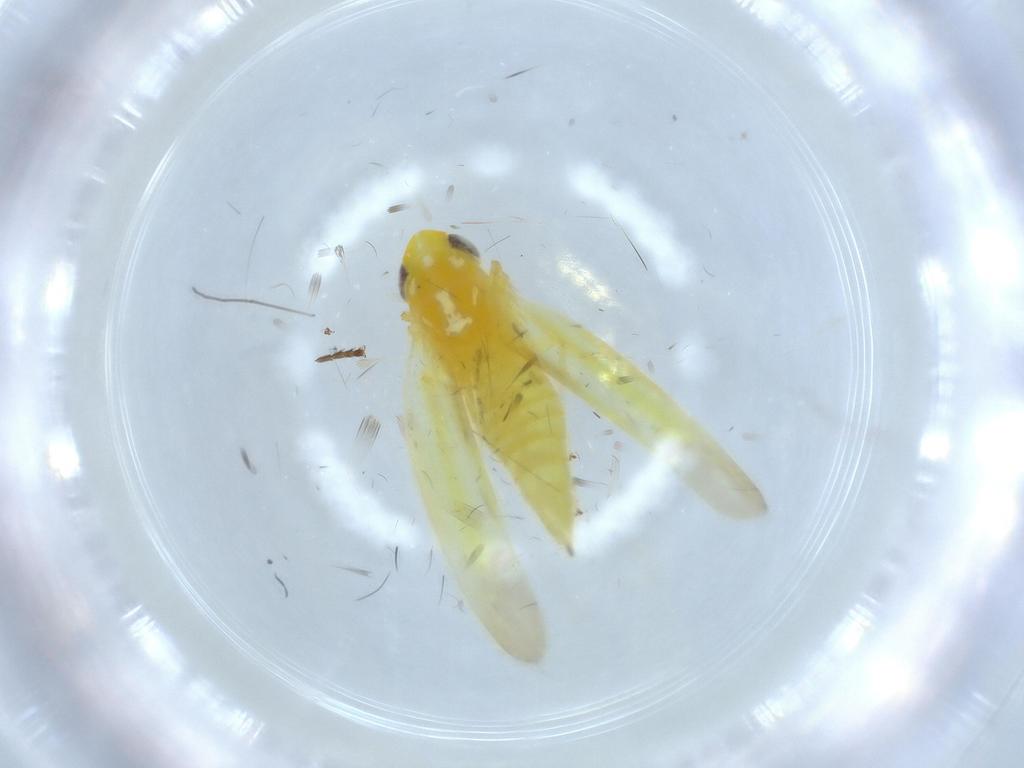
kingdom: Animalia
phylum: Arthropoda
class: Insecta
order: Hemiptera
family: Cicadellidae
